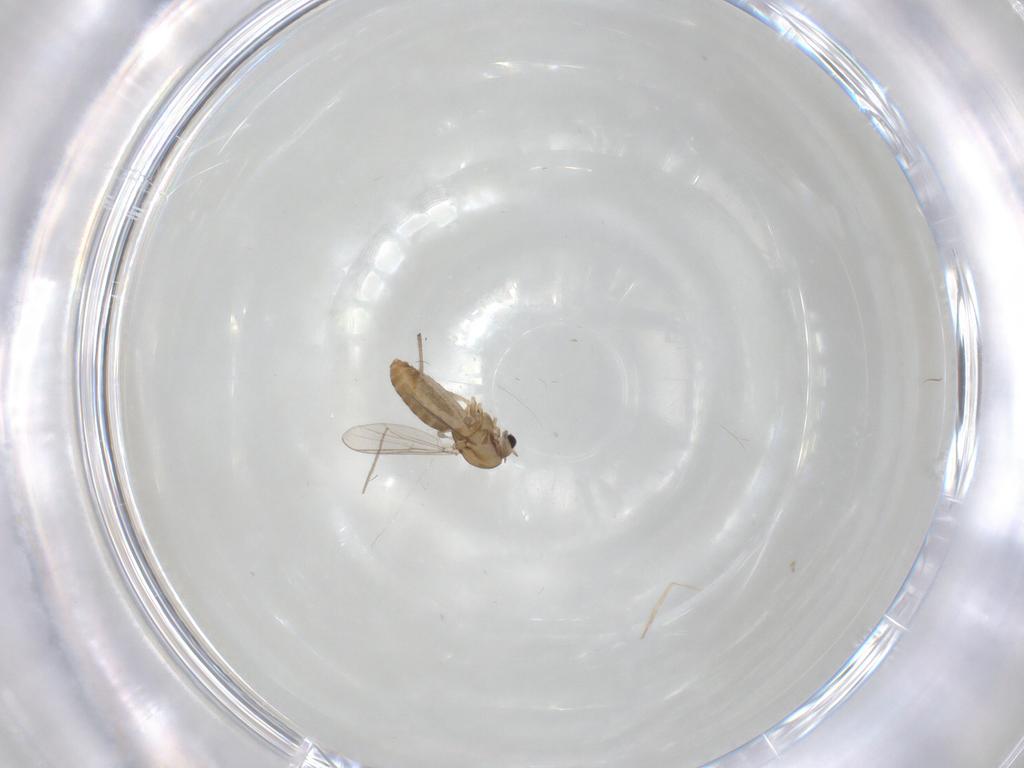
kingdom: Animalia
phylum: Arthropoda
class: Insecta
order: Diptera
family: Chironomidae
